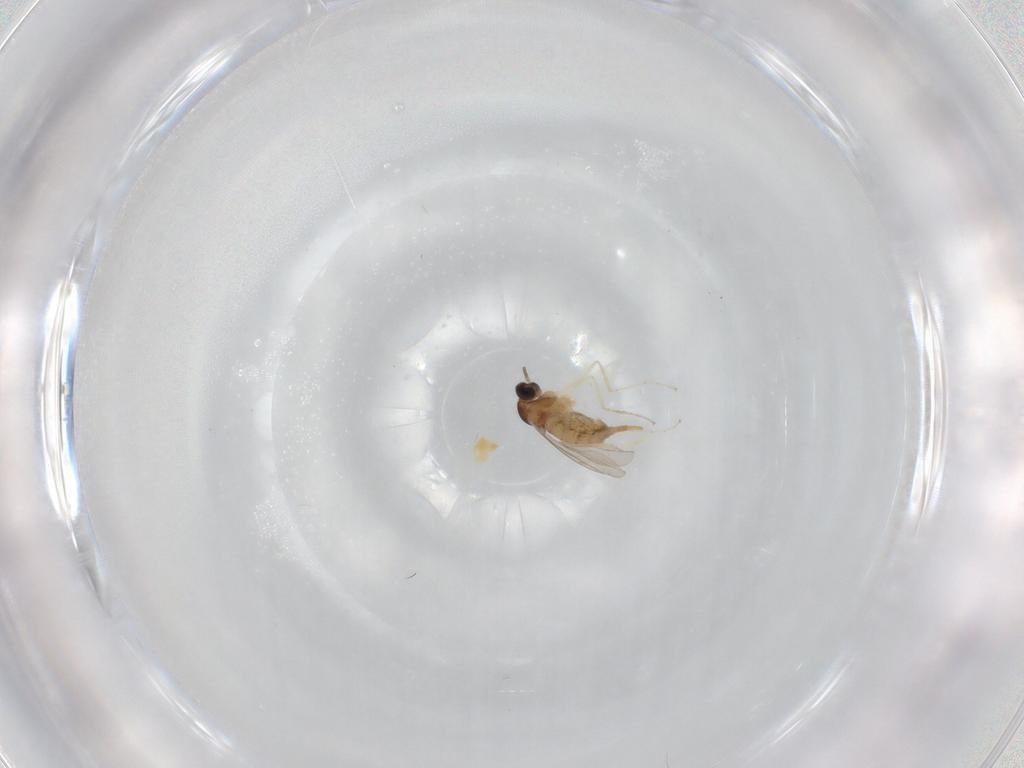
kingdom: Animalia
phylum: Arthropoda
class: Insecta
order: Diptera
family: Cecidomyiidae
